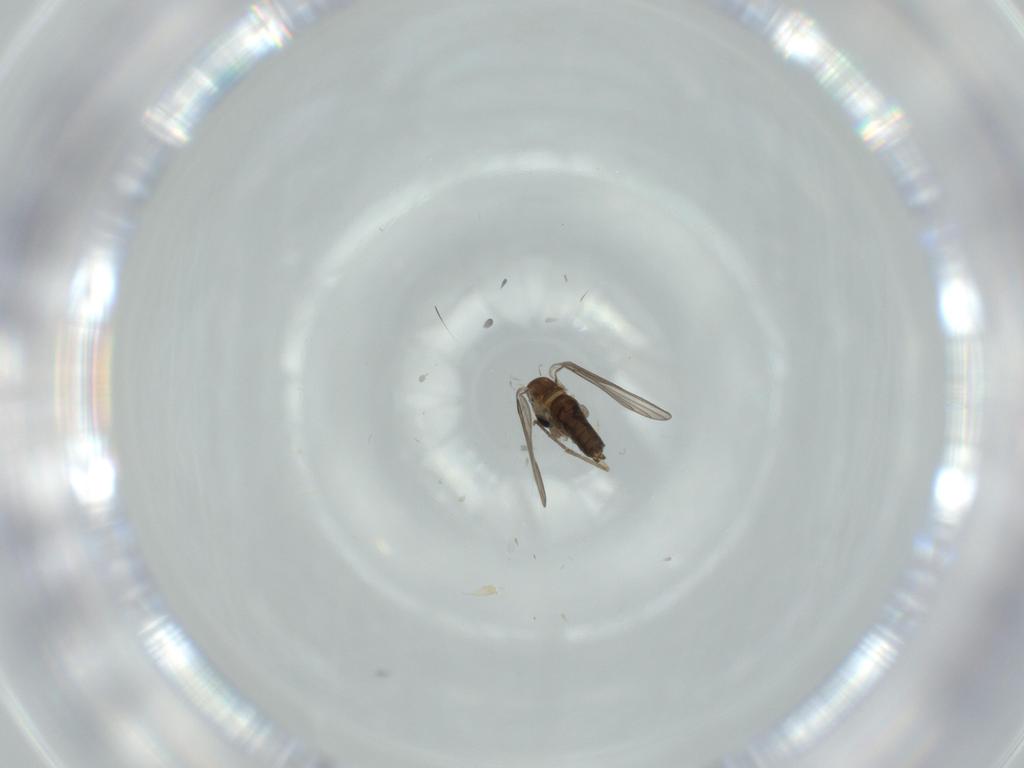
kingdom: Animalia
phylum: Arthropoda
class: Insecta
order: Diptera
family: Cecidomyiidae
